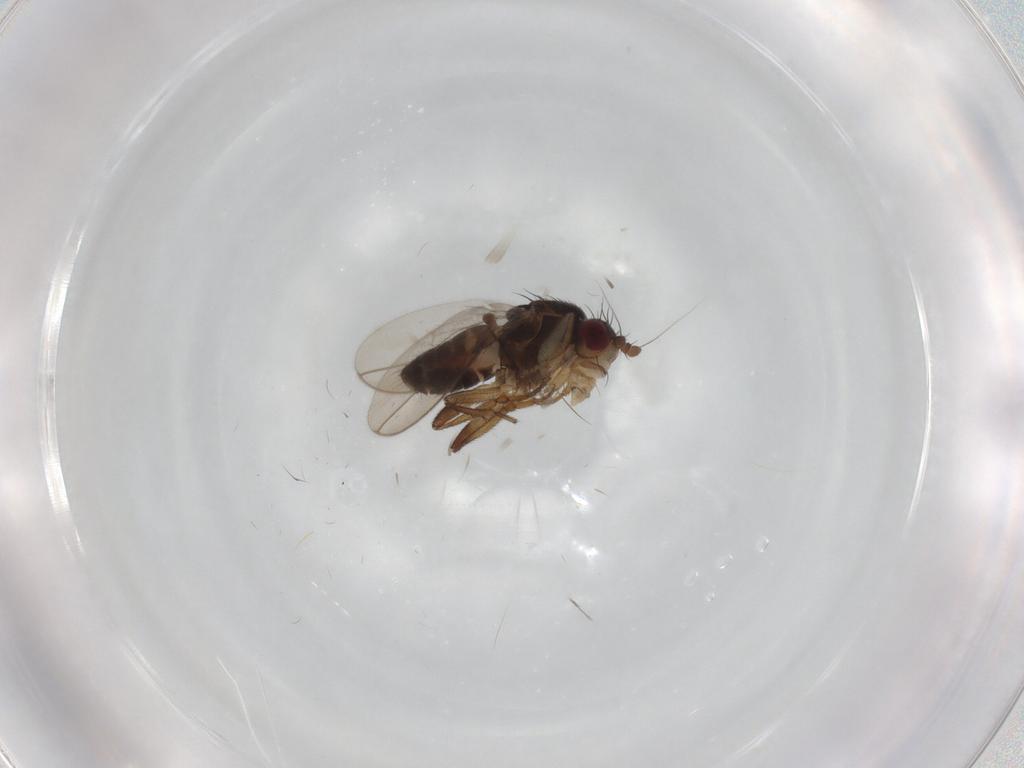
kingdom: Animalia
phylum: Arthropoda
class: Insecta
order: Diptera
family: Sphaeroceridae
